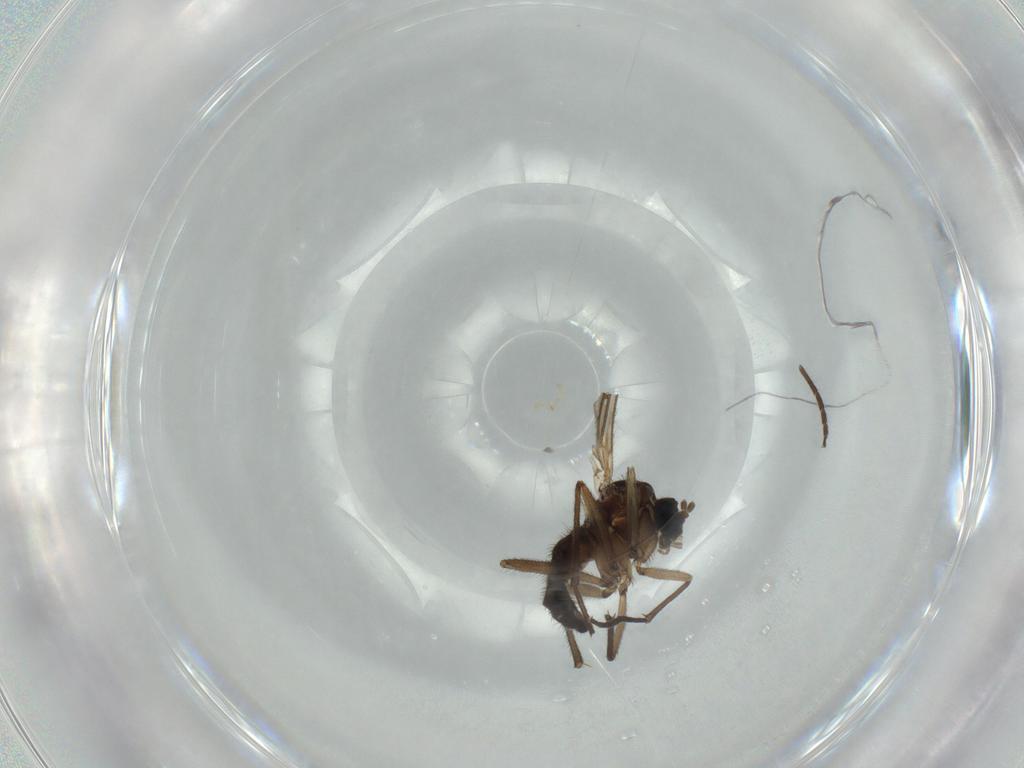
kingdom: Animalia
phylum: Arthropoda
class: Insecta
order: Diptera
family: Sciaridae
